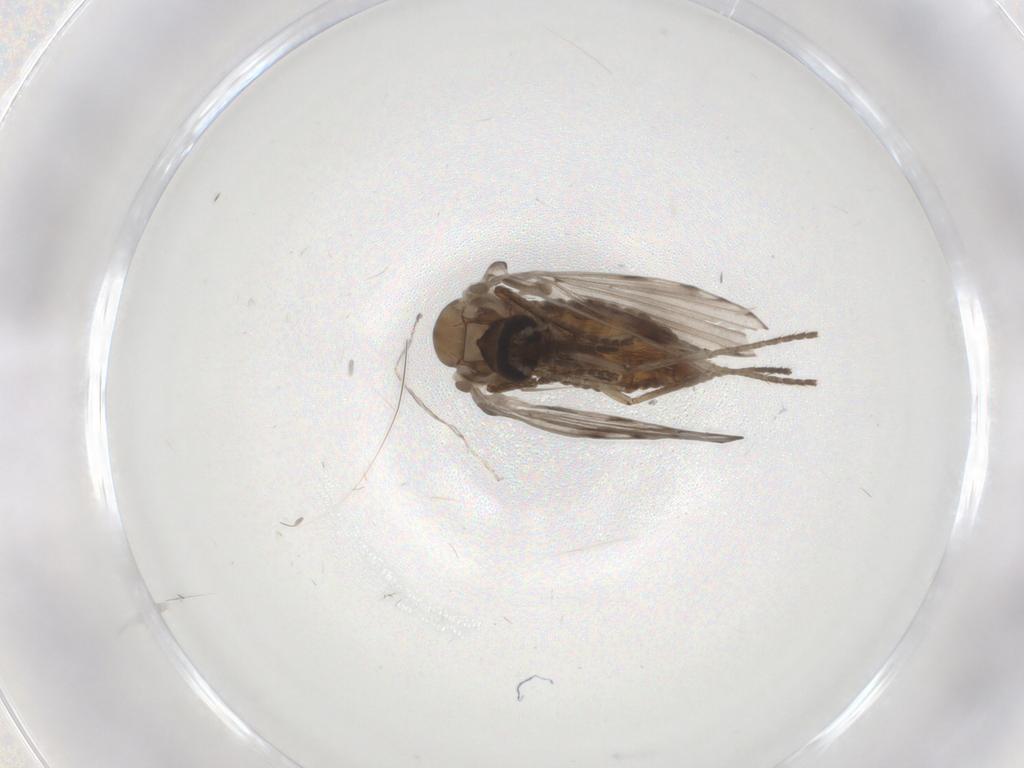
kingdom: Animalia
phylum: Arthropoda
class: Insecta
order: Diptera
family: Psychodidae
